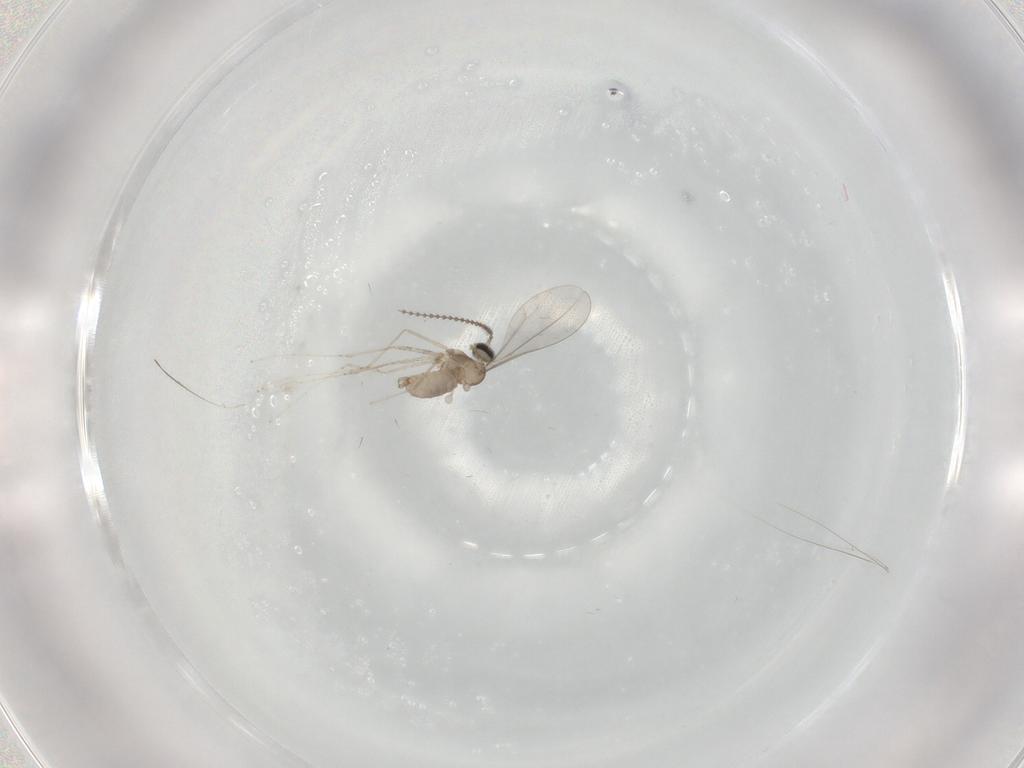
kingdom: Animalia
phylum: Arthropoda
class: Insecta
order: Diptera
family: Cecidomyiidae
